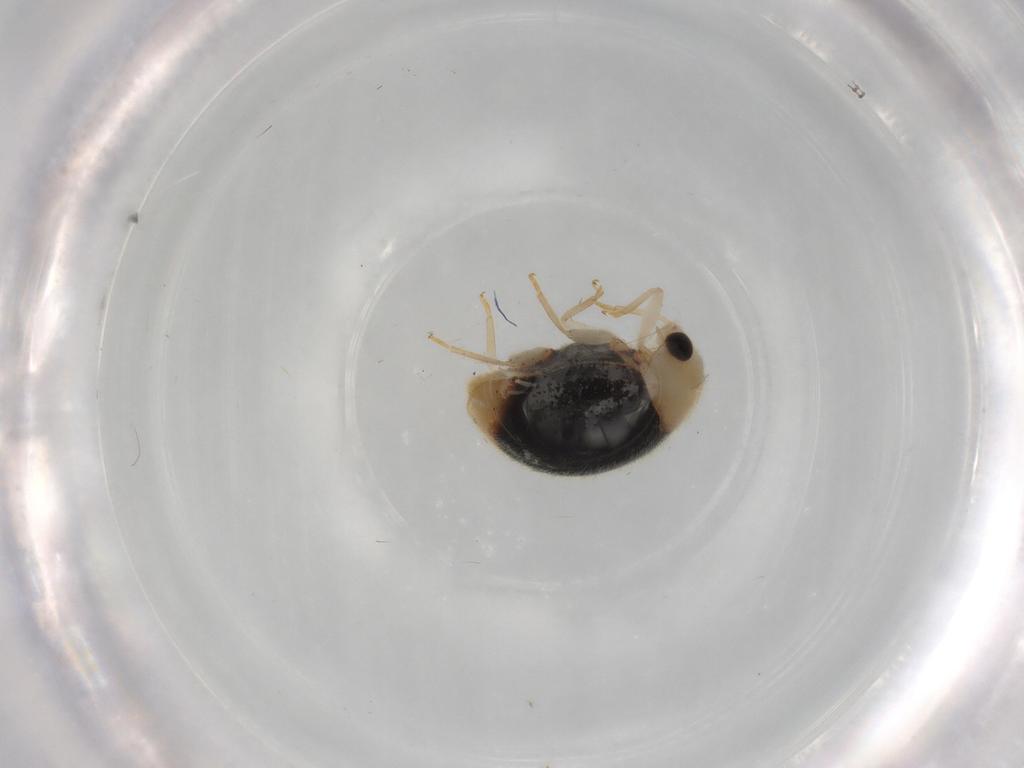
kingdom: Animalia
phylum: Arthropoda
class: Insecta
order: Coleoptera
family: Coccinellidae
